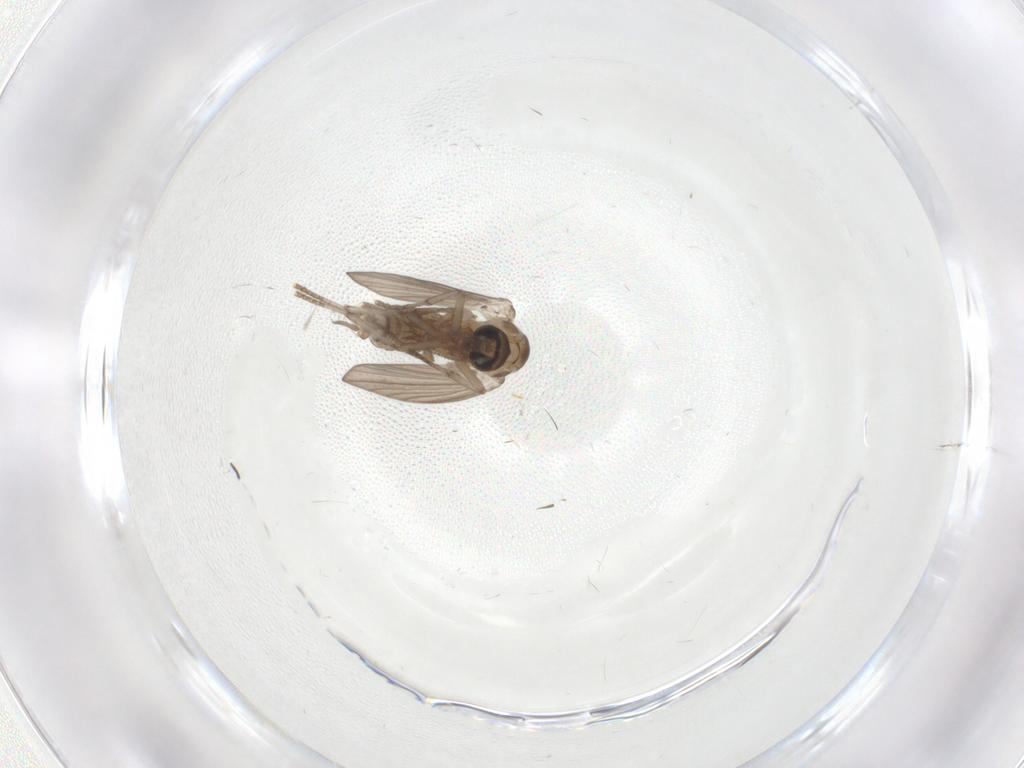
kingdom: Animalia
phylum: Arthropoda
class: Insecta
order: Diptera
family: Psychodidae
